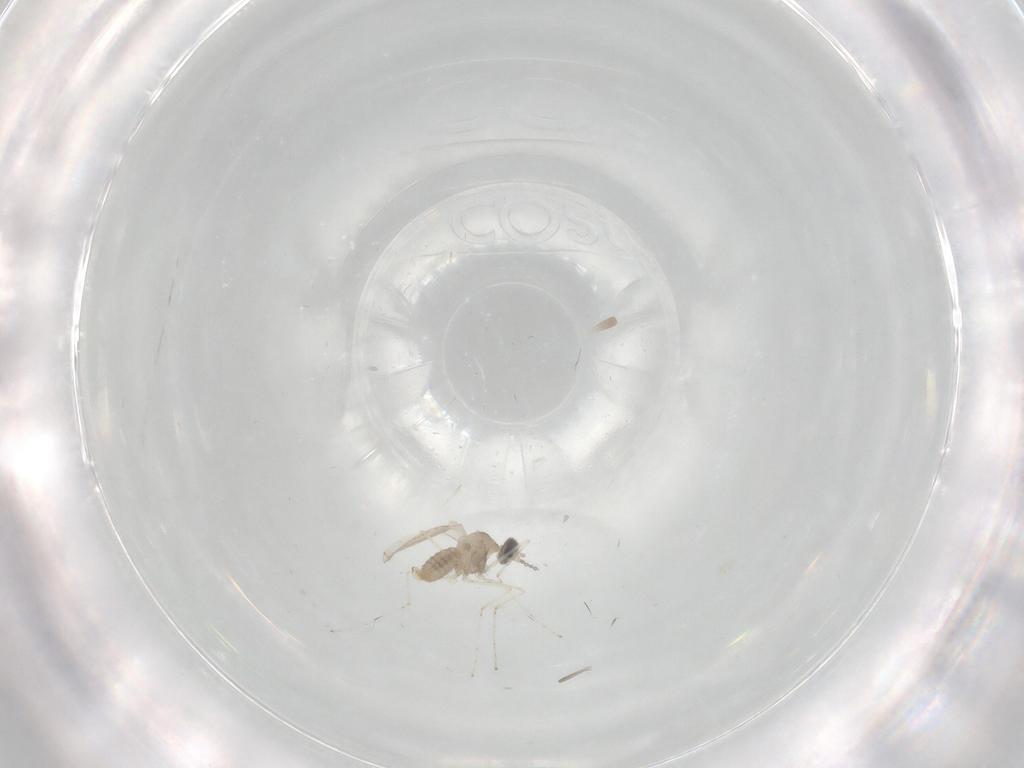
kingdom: Animalia
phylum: Arthropoda
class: Insecta
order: Diptera
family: Cecidomyiidae
